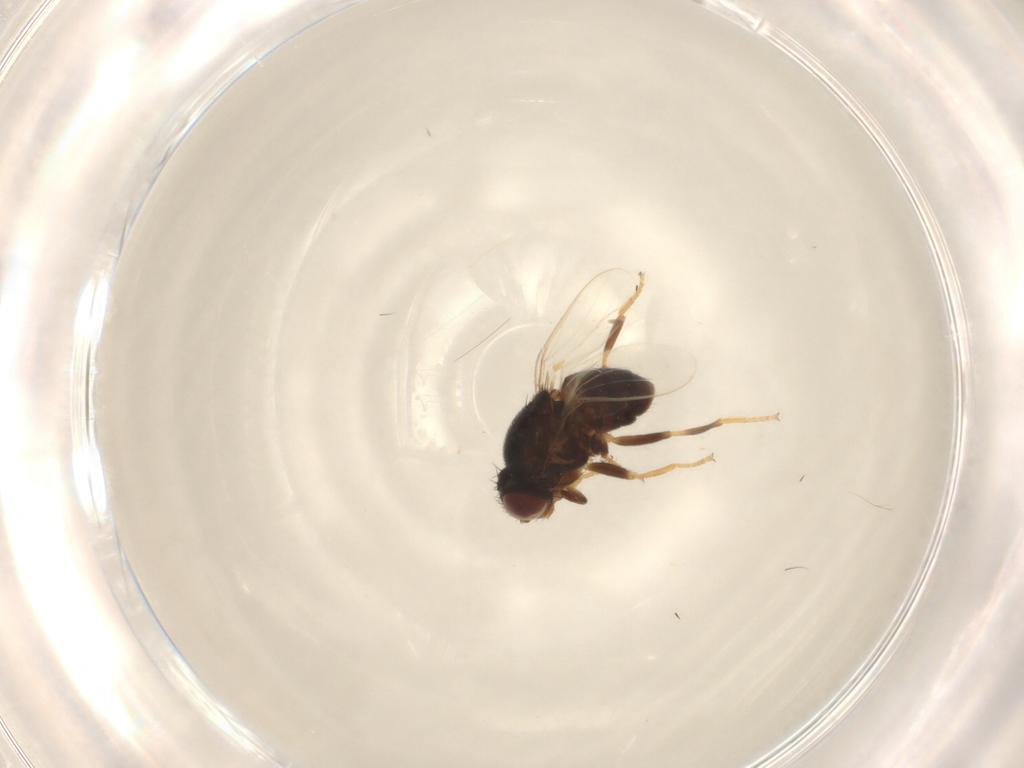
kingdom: Animalia
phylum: Arthropoda
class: Insecta
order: Diptera
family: Chloropidae
